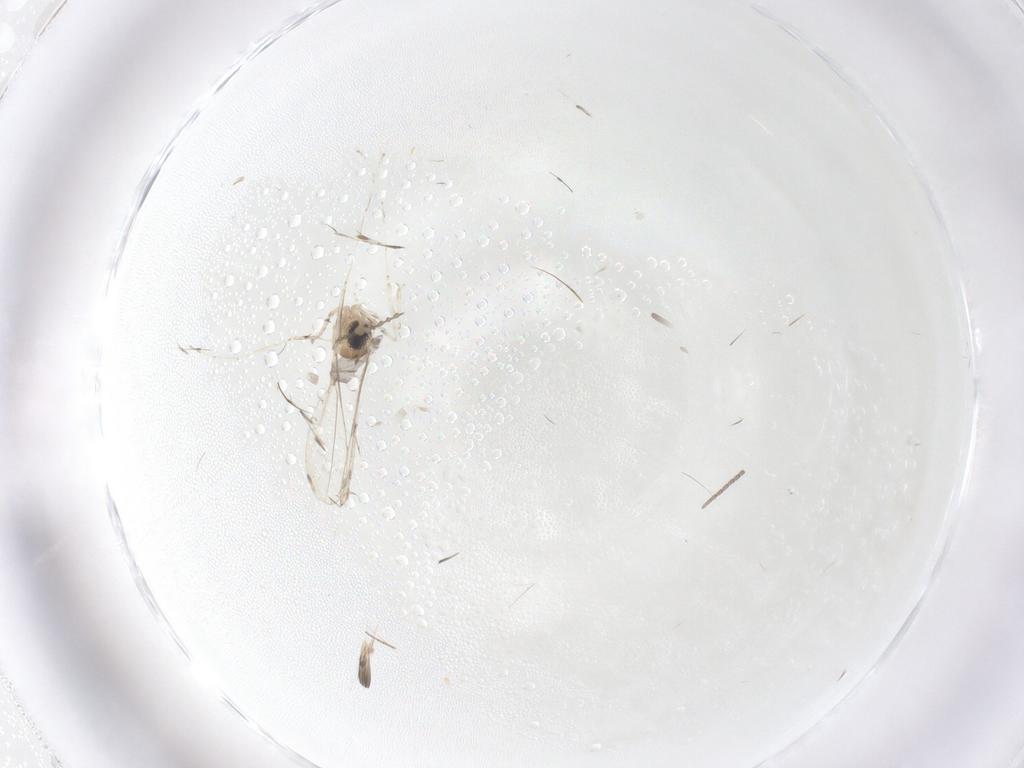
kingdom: Animalia
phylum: Arthropoda
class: Insecta
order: Diptera
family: Cecidomyiidae
